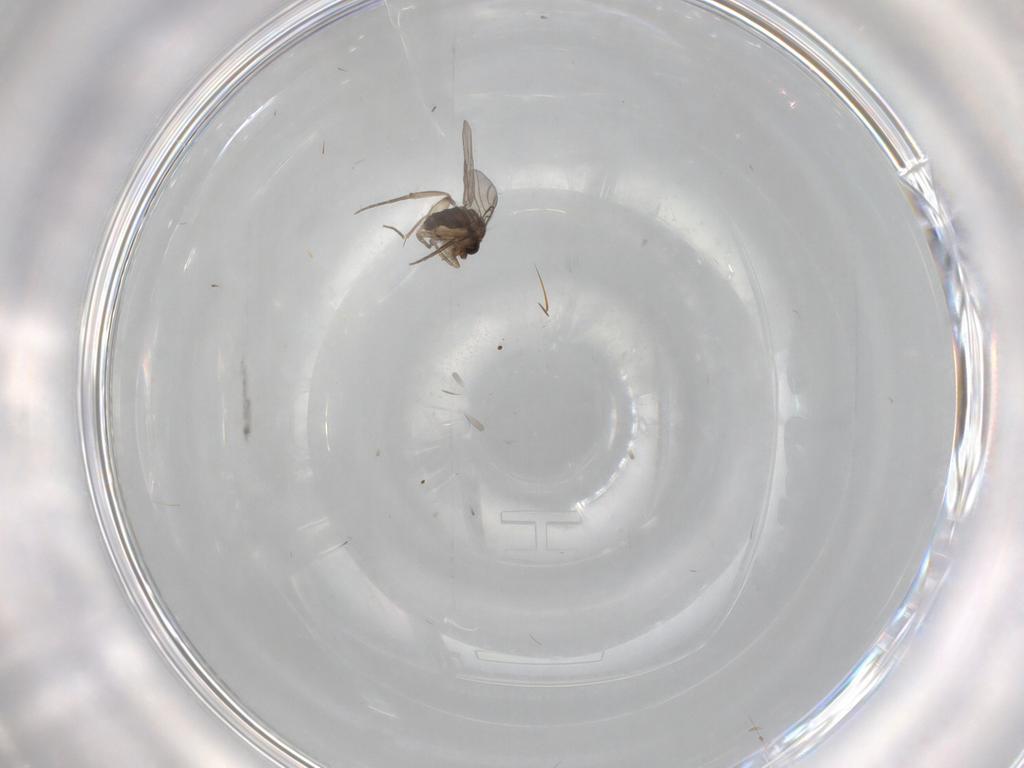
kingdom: Animalia
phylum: Arthropoda
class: Insecta
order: Diptera
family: Phoridae
